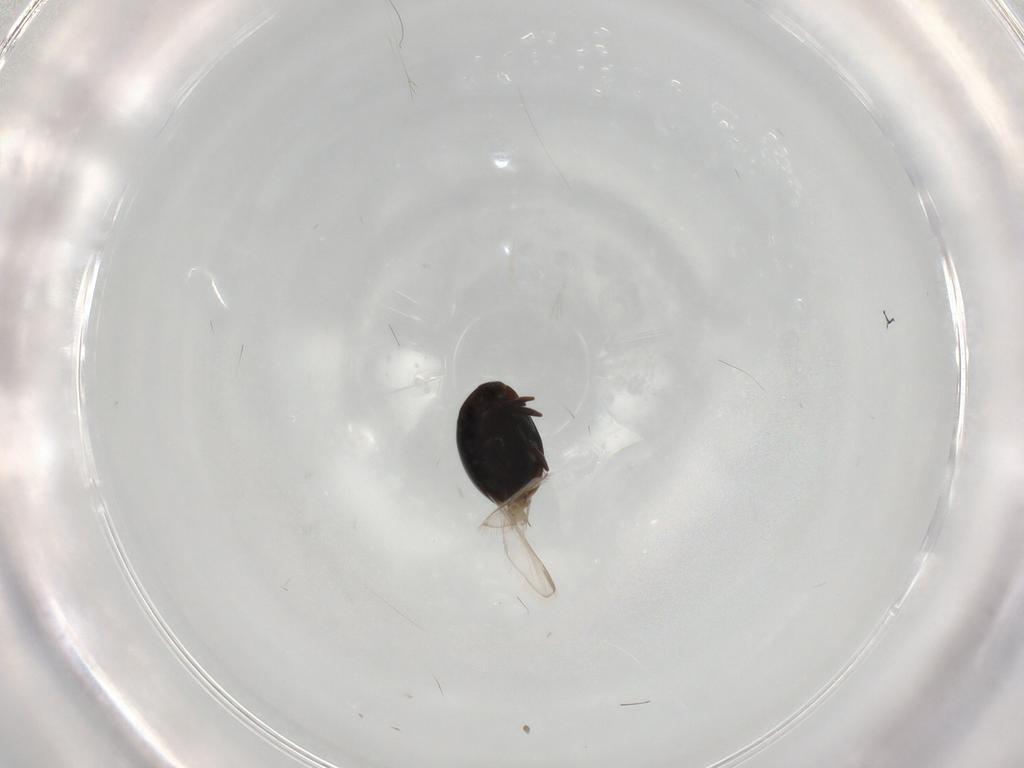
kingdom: Animalia
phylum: Arthropoda
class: Insecta
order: Coleoptera
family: Corylophidae
